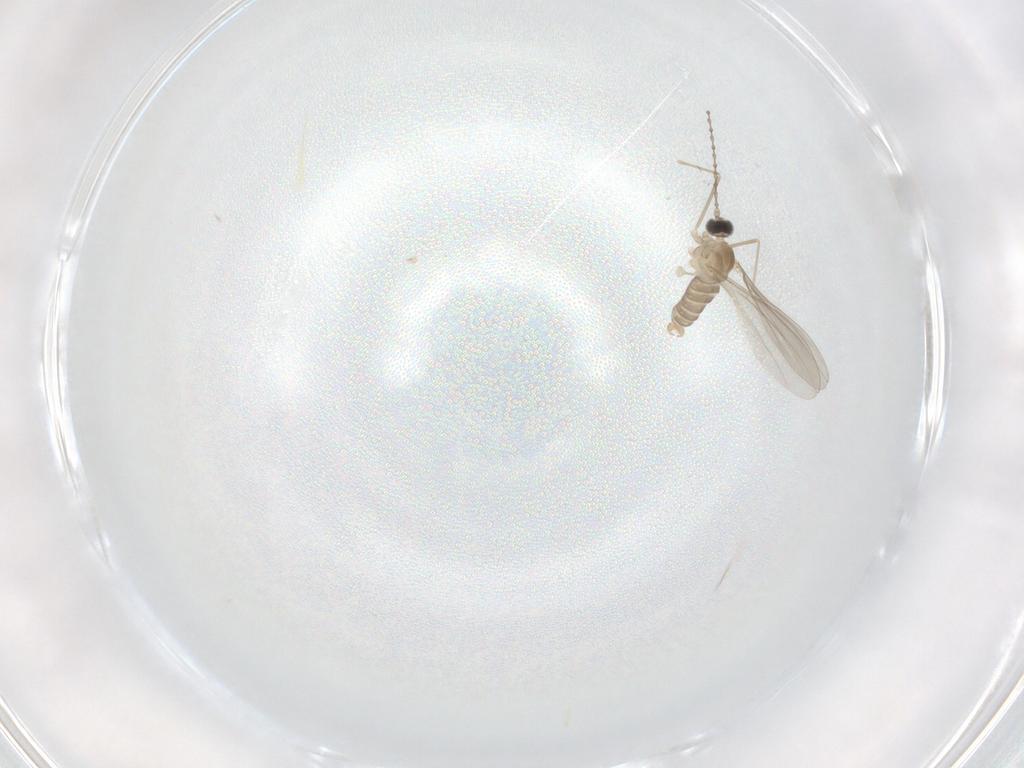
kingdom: Animalia
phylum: Arthropoda
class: Insecta
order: Diptera
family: Cecidomyiidae
